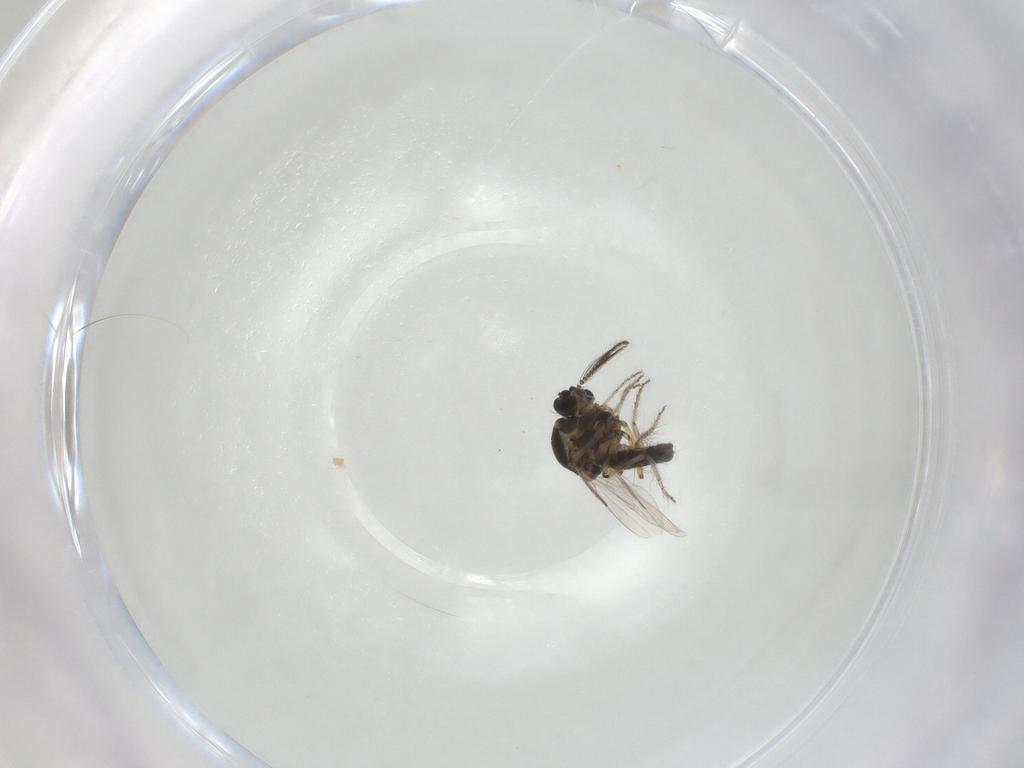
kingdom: Animalia
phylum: Arthropoda
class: Insecta
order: Diptera
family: Ceratopogonidae
